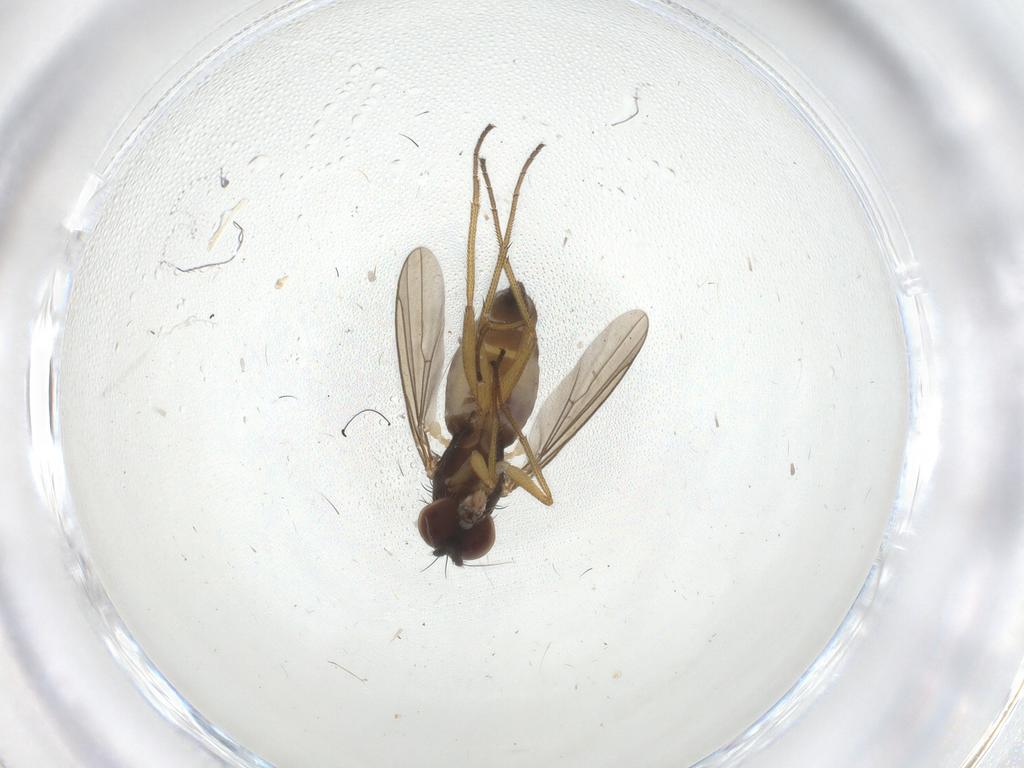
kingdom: Animalia
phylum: Arthropoda
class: Insecta
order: Diptera
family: Dolichopodidae
